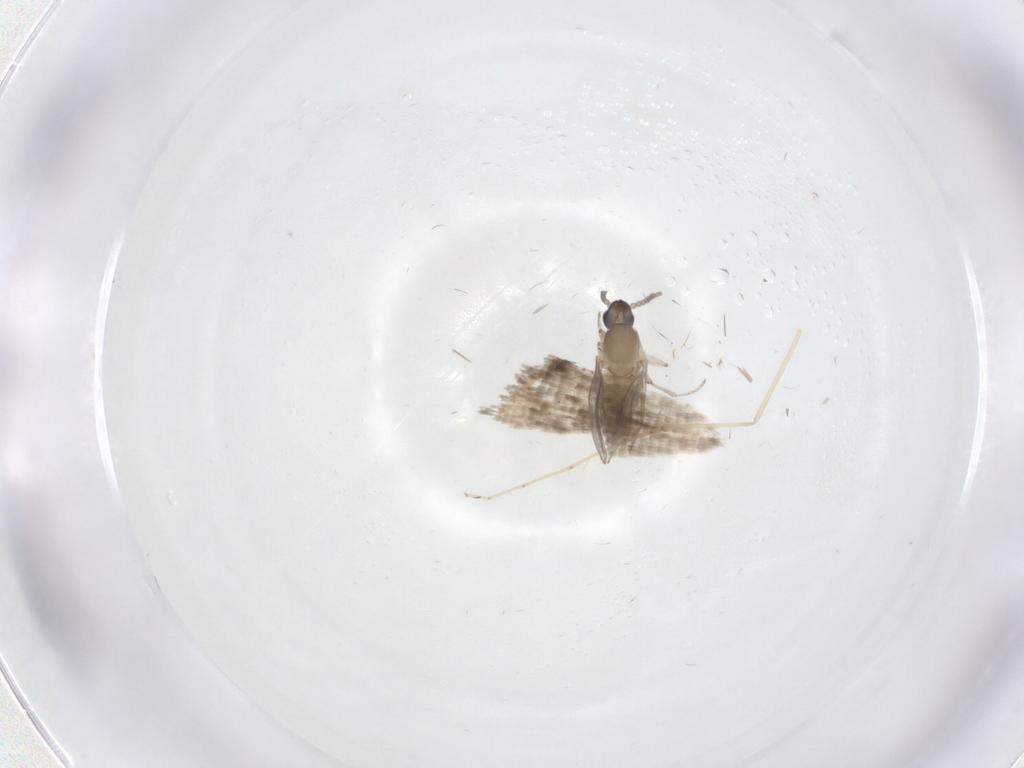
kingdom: Animalia
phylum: Arthropoda
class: Insecta
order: Diptera
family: Cecidomyiidae
